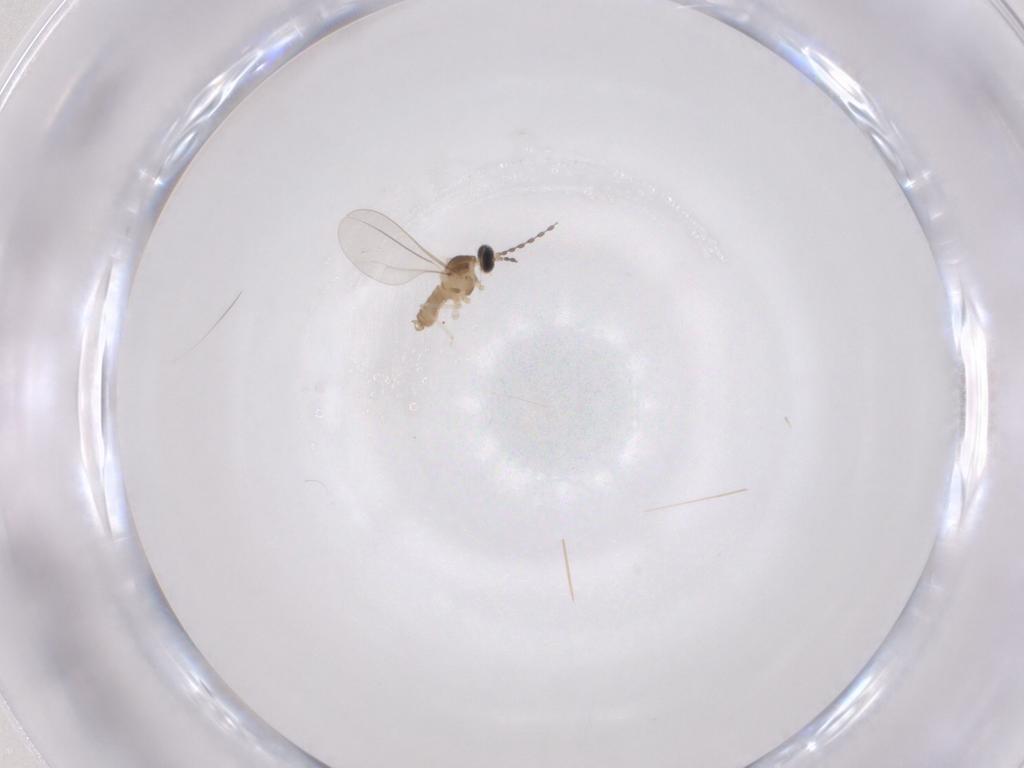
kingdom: Animalia
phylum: Arthropoda
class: Insecta
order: Diptera
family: Cecidomyiidae
